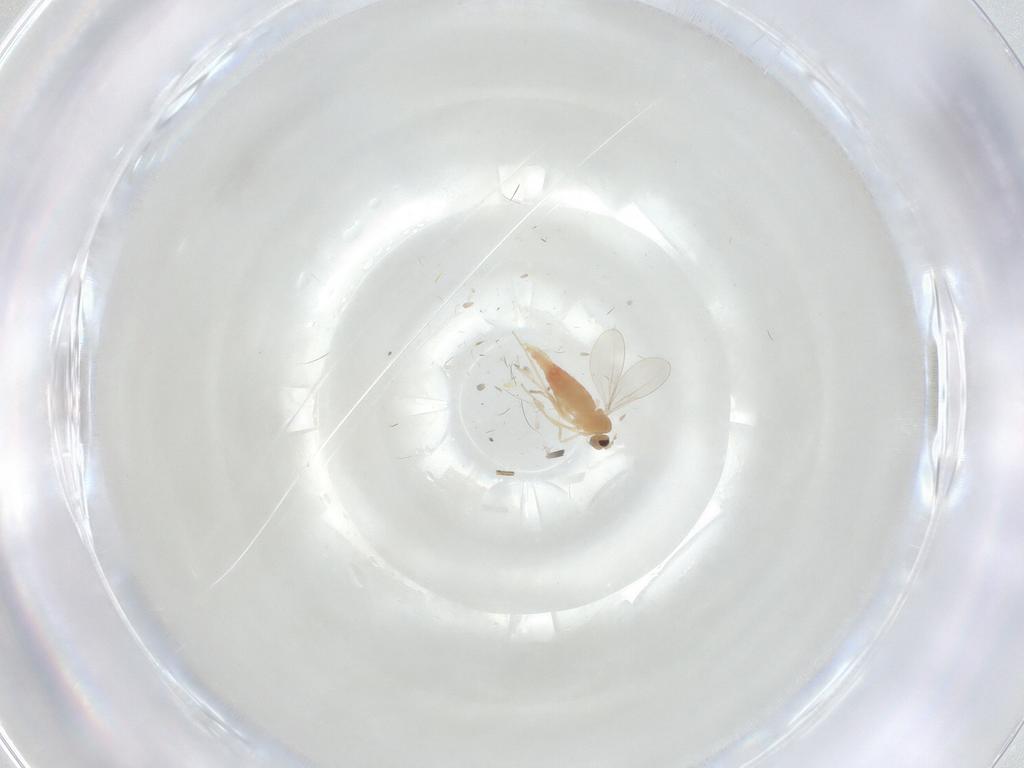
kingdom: Animalia
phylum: Arthropoda
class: Insecta
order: Diptera
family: Cecidomyiidae
